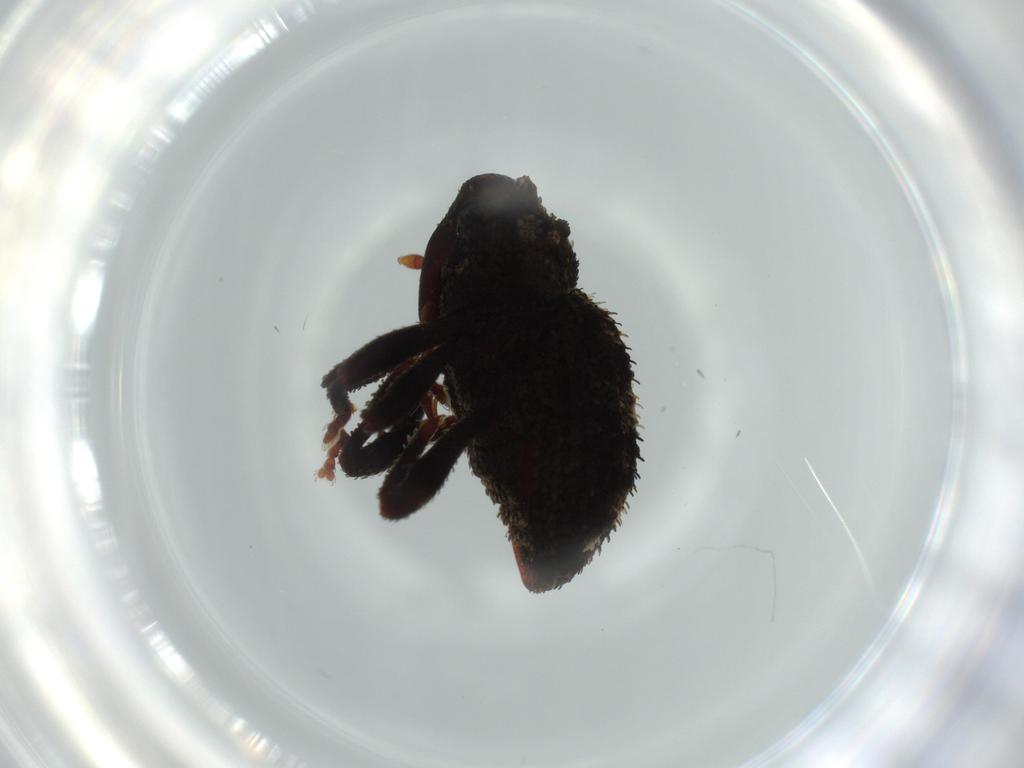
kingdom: Animalia
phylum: Arthropoda
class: Insecta
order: Coleoptera
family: Curculionidae
